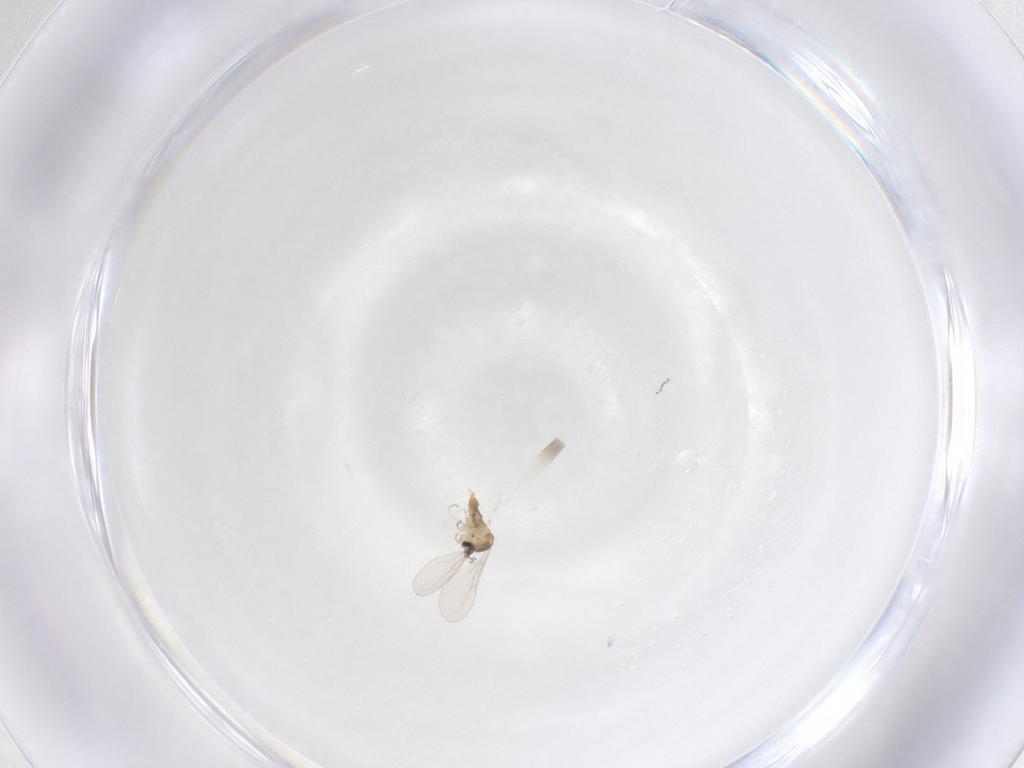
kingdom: Animalia
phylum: Arthropoda
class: Insecta
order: Diptera
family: Cecidomyiidae
